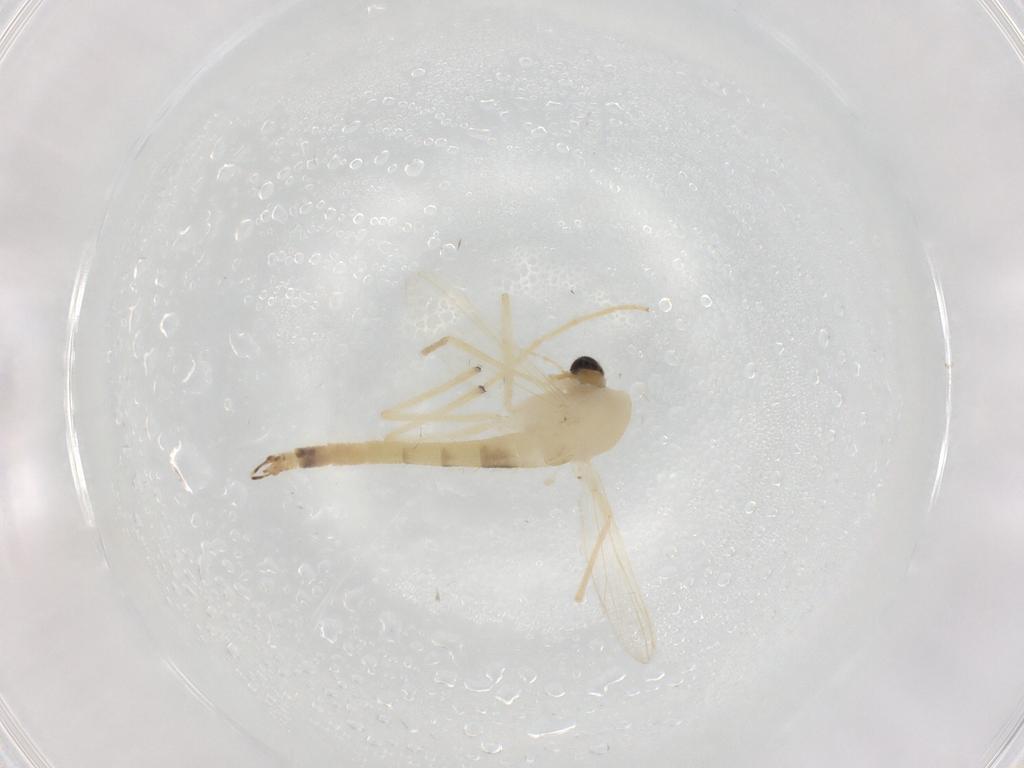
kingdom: Animalia
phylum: Arthropoda
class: Insecta
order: Diptera
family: Chironomidae
